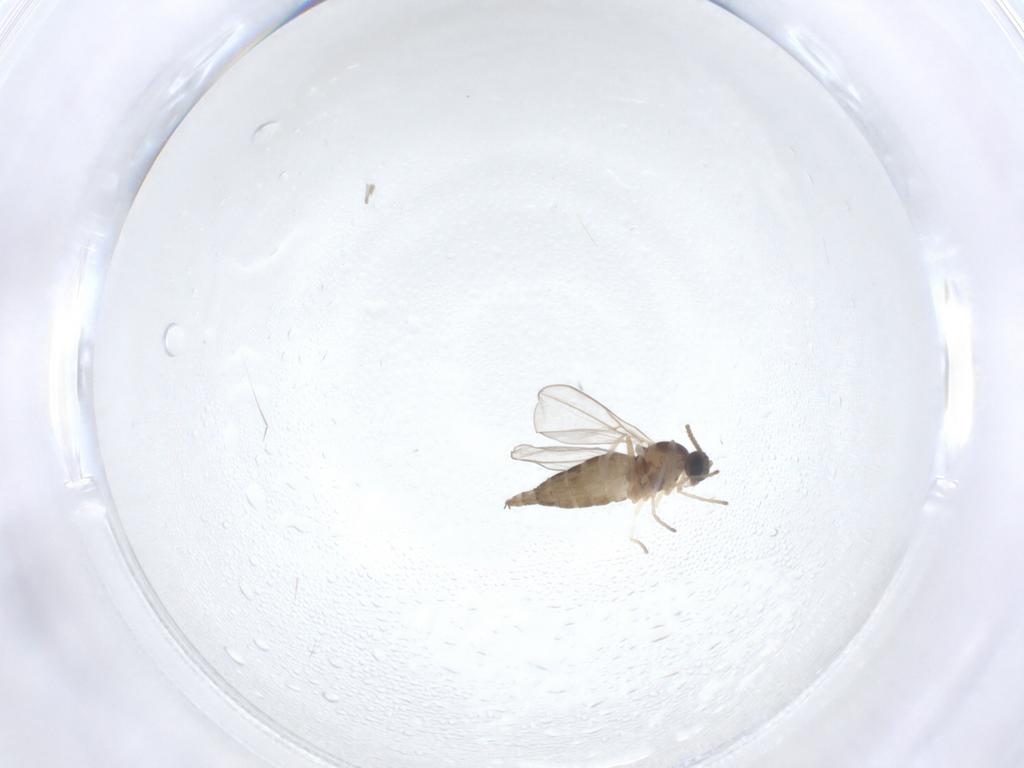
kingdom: Animalia
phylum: Arthropoda
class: Insecta
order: Diptera
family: Cecidomyiidae
